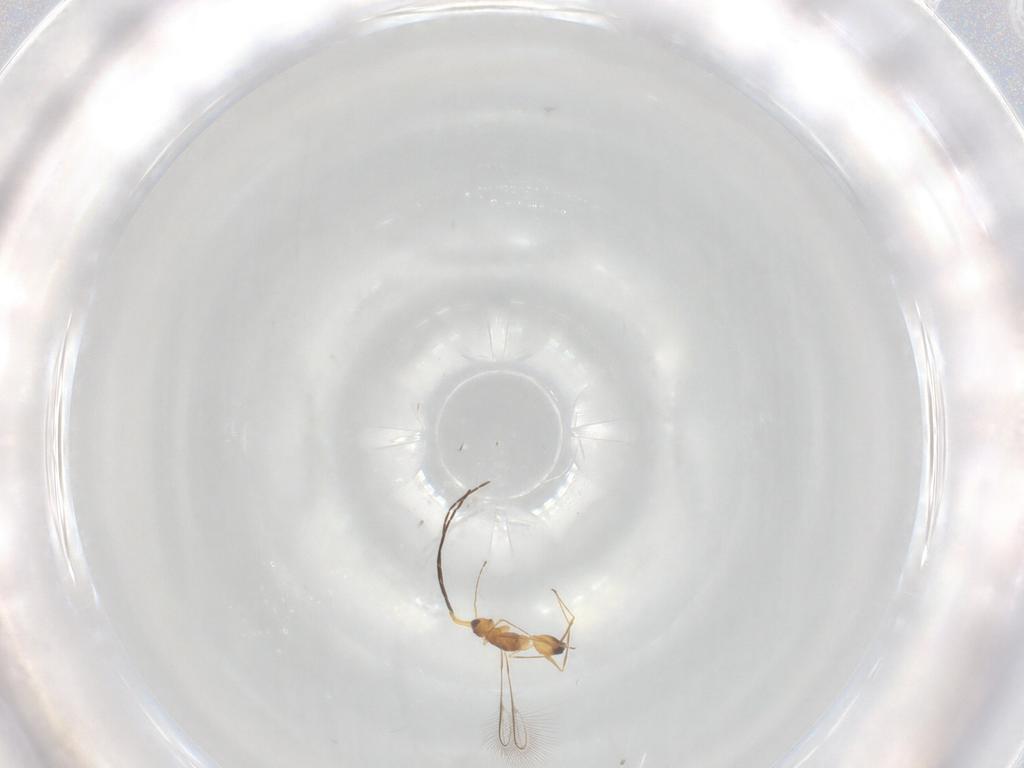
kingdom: Animalia
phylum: Arthropoda
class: Insecta
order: Hymenoptera
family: Mymaridae
